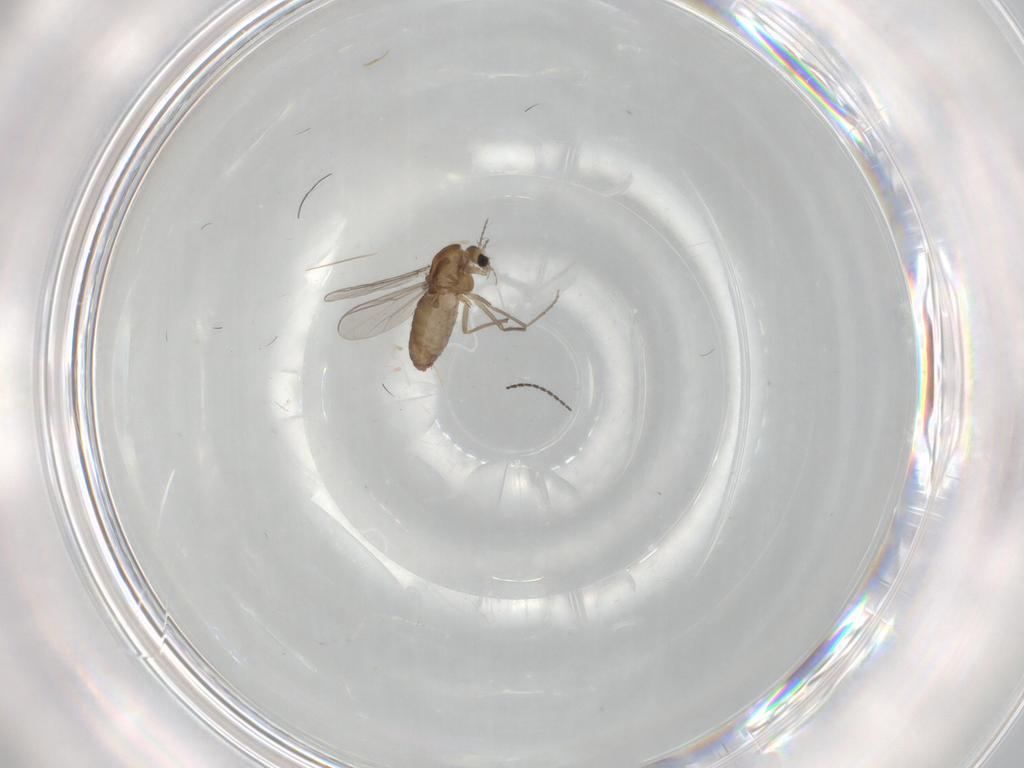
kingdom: Animalia
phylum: Arthropoda
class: Insecta
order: Diptera
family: Chironomidae
